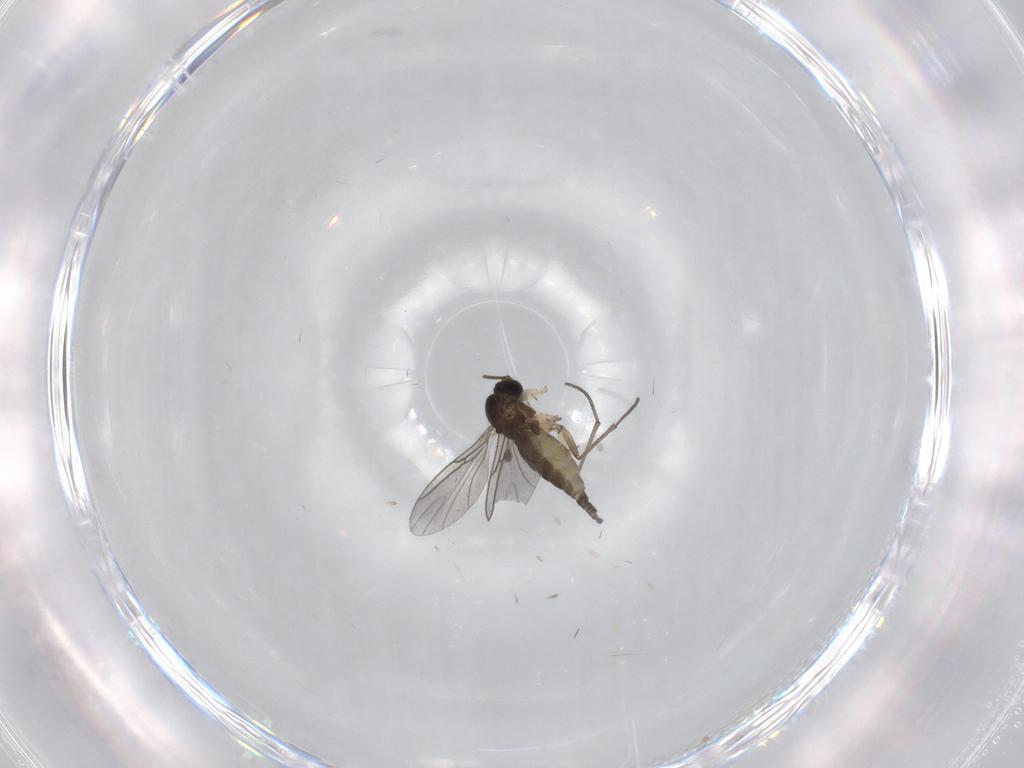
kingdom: Animalia
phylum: Arthropoda
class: Insecta
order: Diptera
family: Sciaridae
